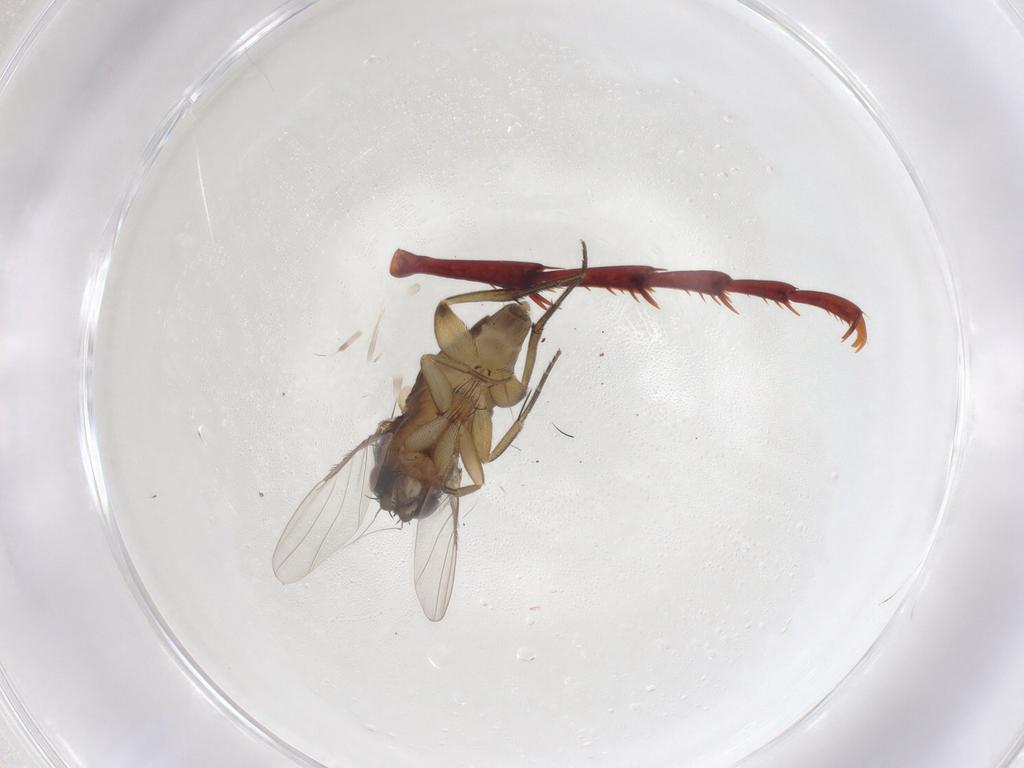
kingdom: Animalia
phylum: Arthropoda
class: Insecta
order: Diptera
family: Phoridae
